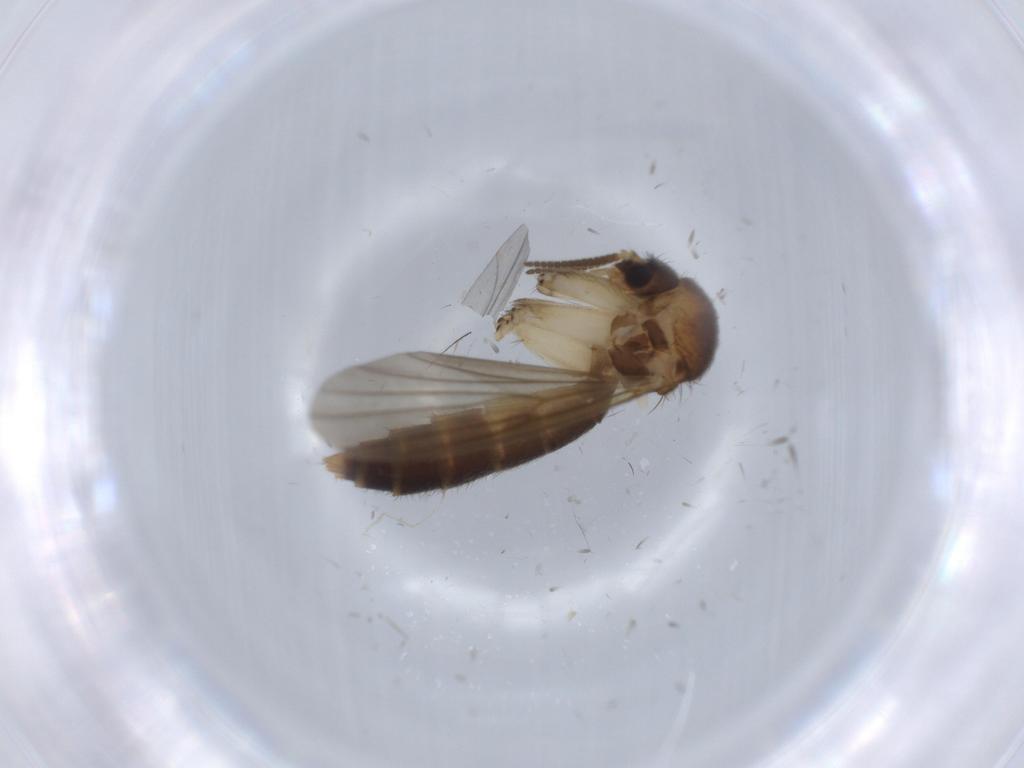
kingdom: Animalia
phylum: Arthropoda
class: Insecta
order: Diptera
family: Mycetophilidae
